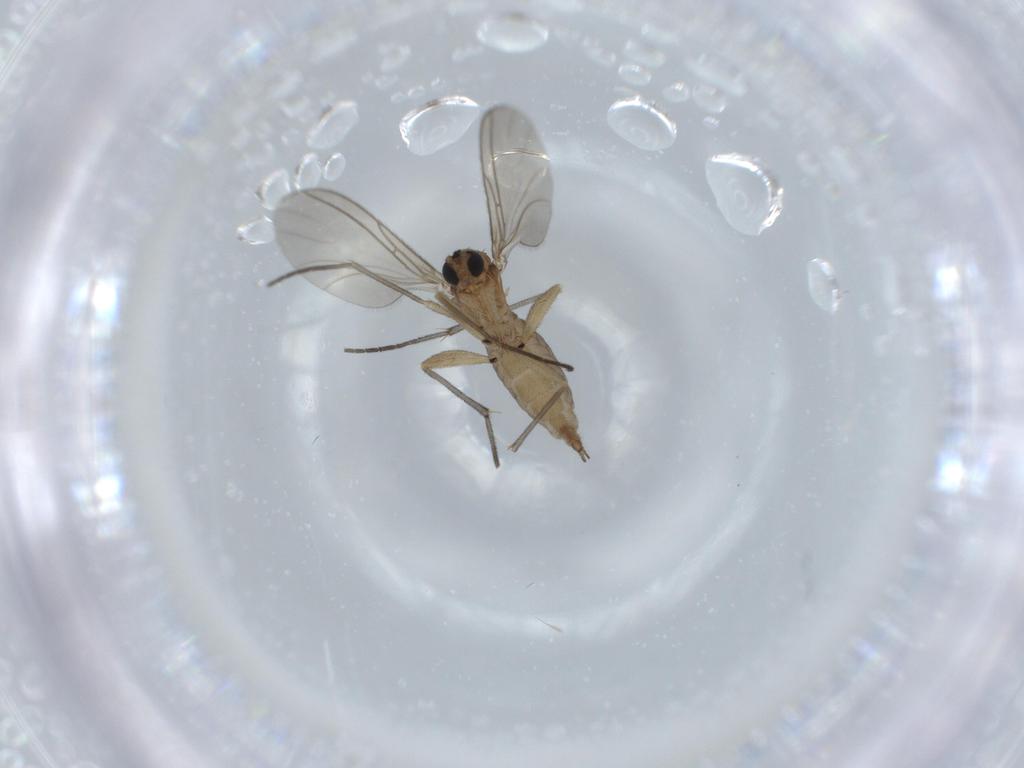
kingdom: Animalia
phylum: Arthropoda
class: Insecta
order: Diptera
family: Sciaridae
